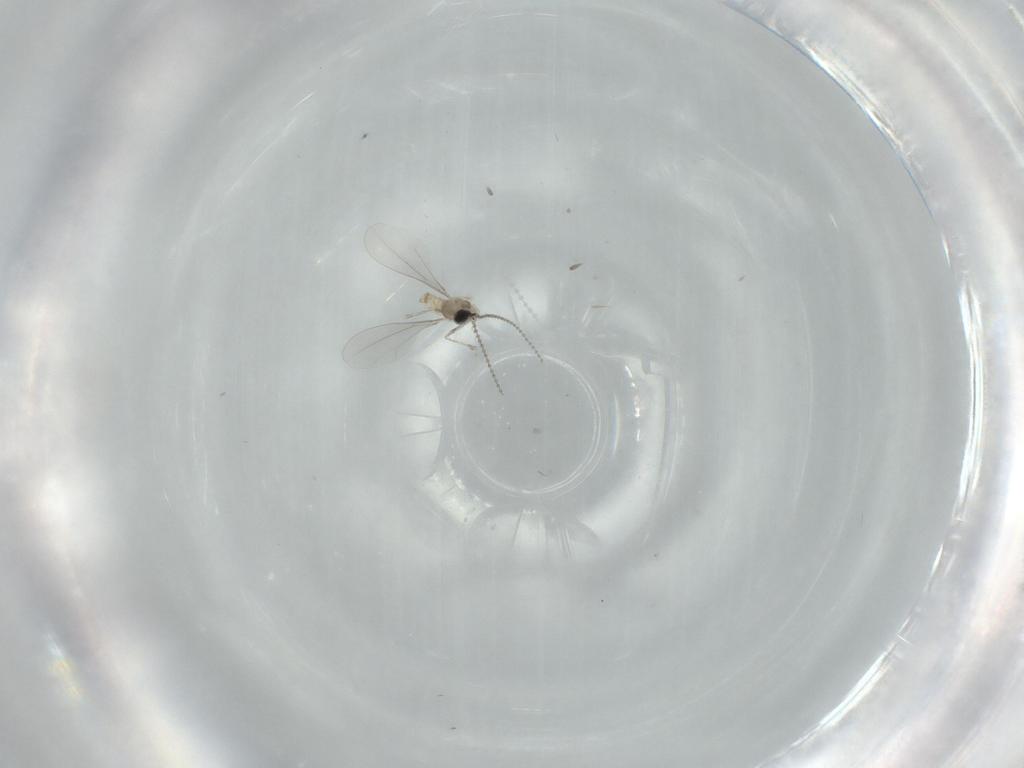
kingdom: Animalia
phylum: Arthropoda
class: Insecta
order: Diptera
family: Cecidomyiidae
